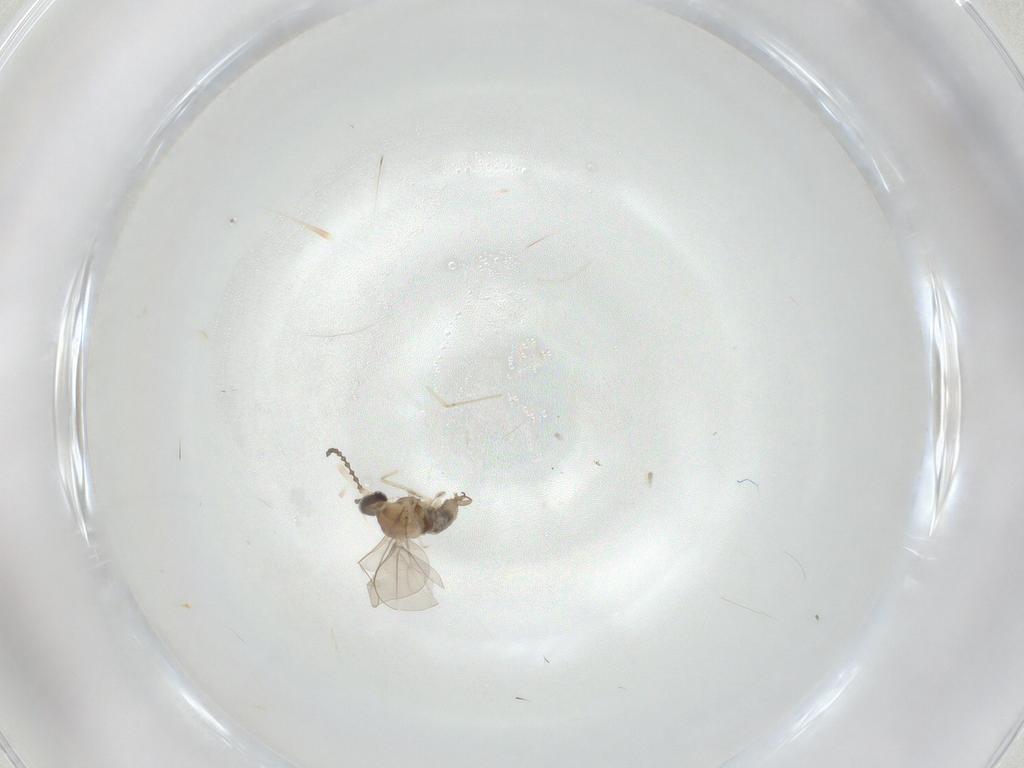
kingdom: Animalia
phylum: Arthropoda
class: Insecta
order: Diptera
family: Cecidomyiidae
